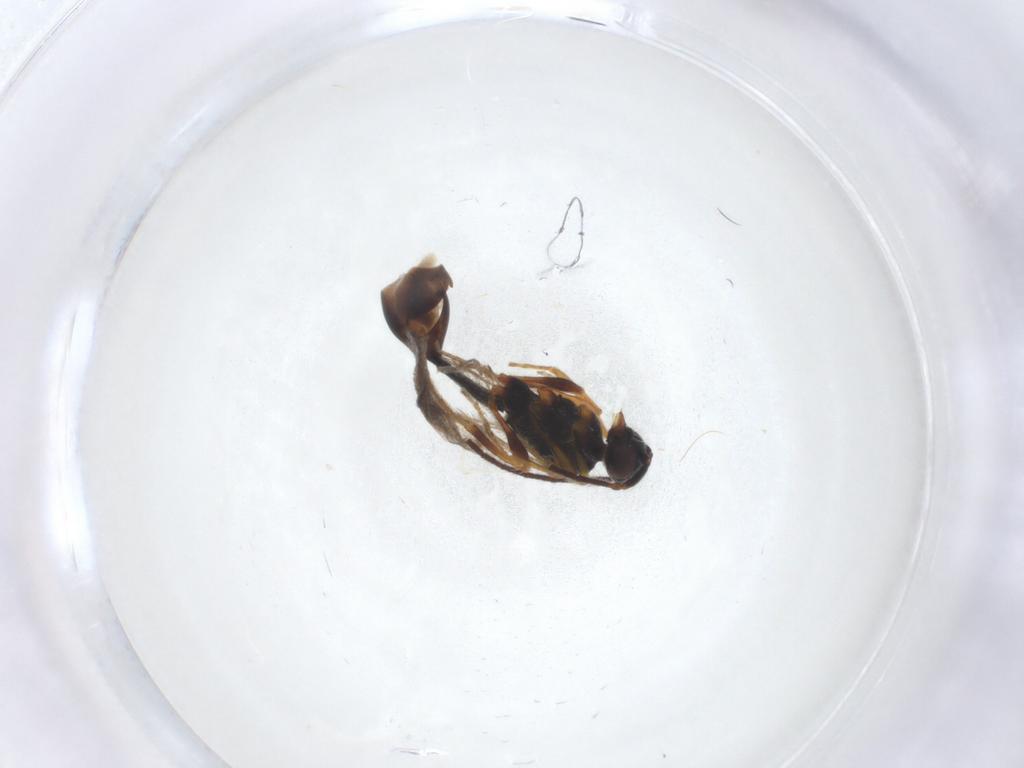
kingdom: Animalia
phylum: Arthropoda
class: Insecta
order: Hymenoptera
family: Diapriidae
